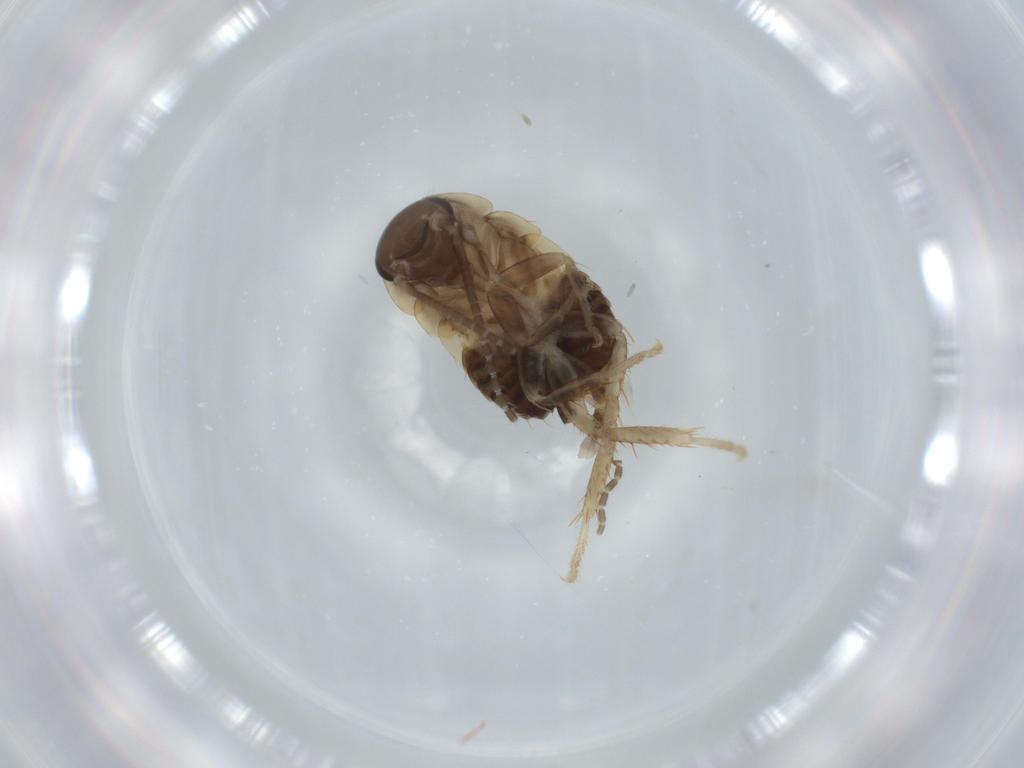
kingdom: Animalia
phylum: Arthropoda
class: Insecta
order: Blattodea
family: Ectobiidae
